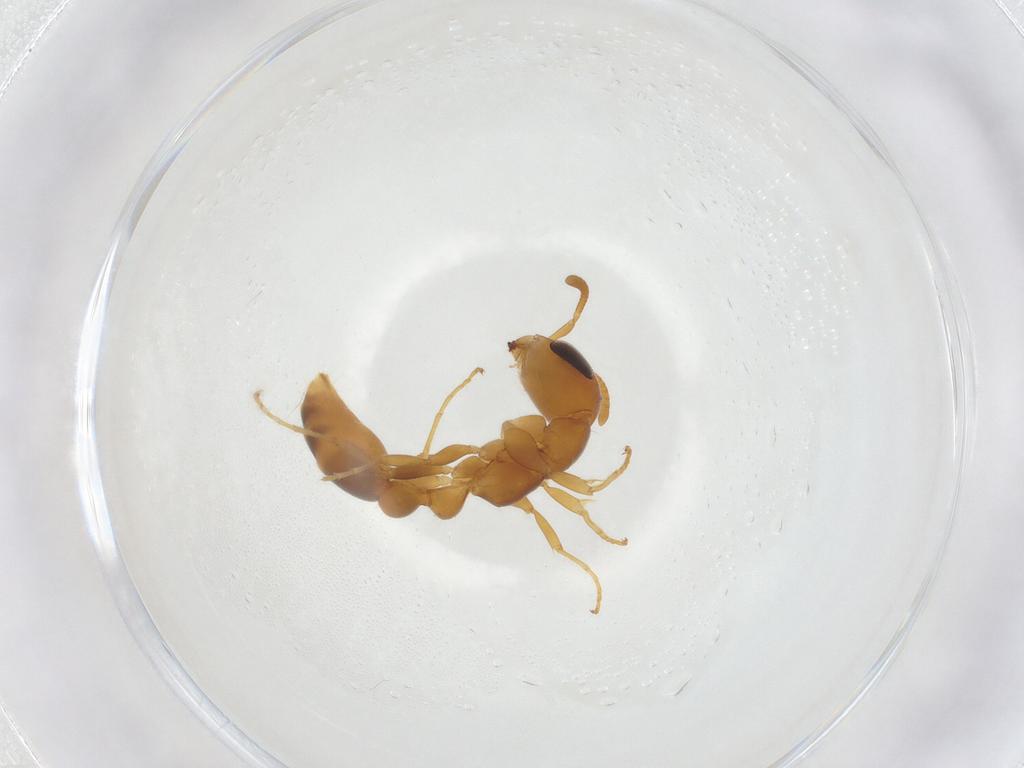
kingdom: Animalia
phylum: Arthropoda
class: Insecta
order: Hymenoptera
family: Formicidae
